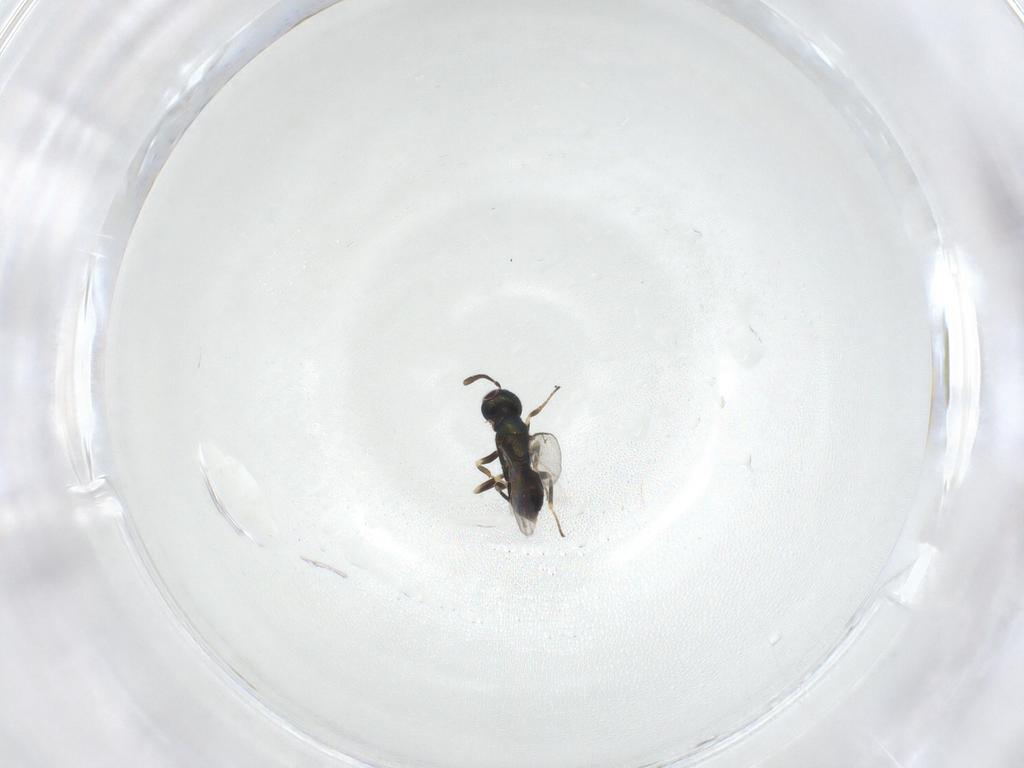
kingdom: Animalia
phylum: Arthropoda
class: Insecta
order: Hymenoptera
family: Eupelmidae
